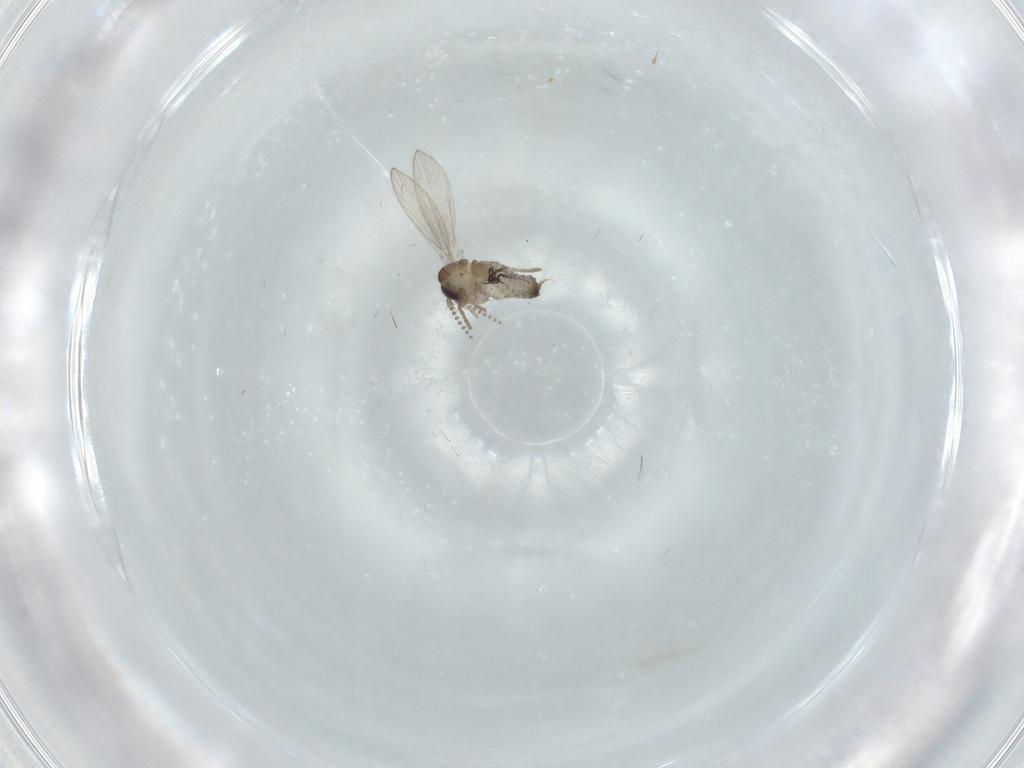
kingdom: Animalia
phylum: Arthropoda
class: Insecta
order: Diptera
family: Psychodidae
